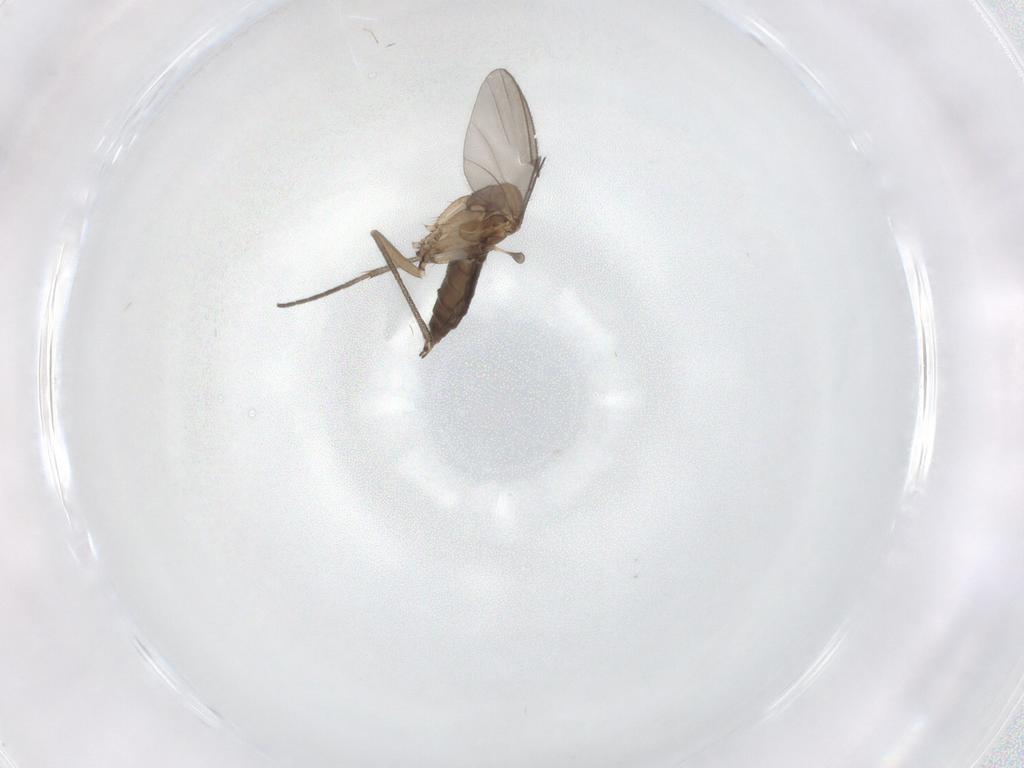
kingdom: Animalia
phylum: Arthropoda
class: Insecta
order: Diptera
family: Sciaridae
